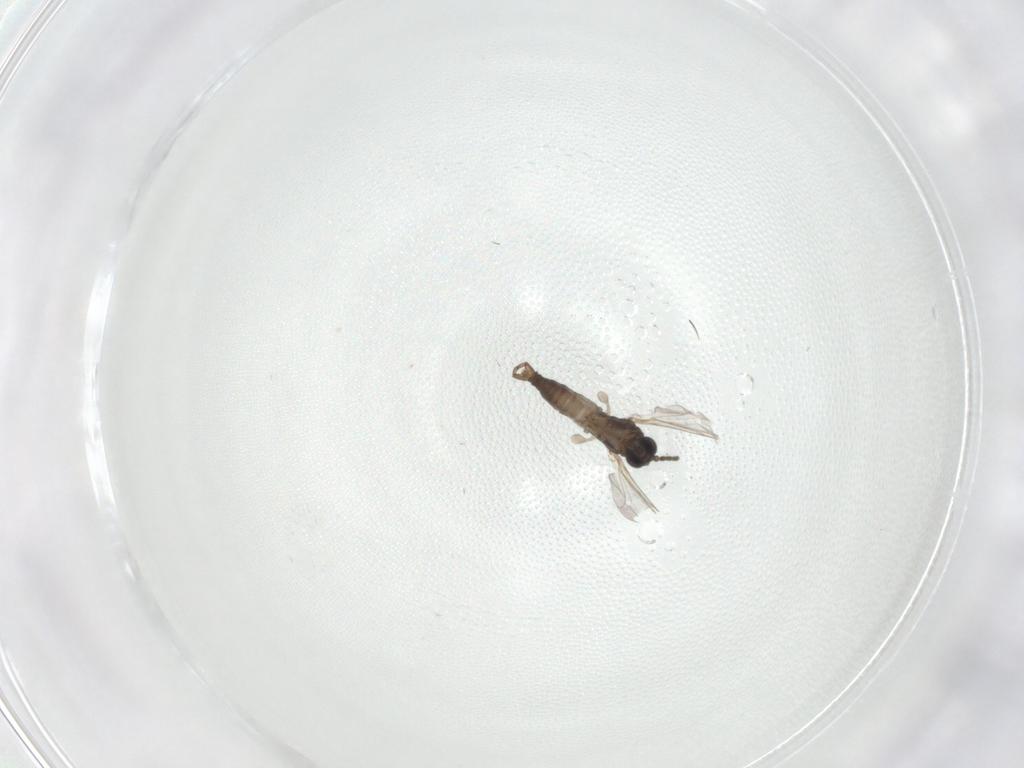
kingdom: Animalia
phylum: Arthropoda
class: Insecta
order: Diptera
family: Sciaridae
